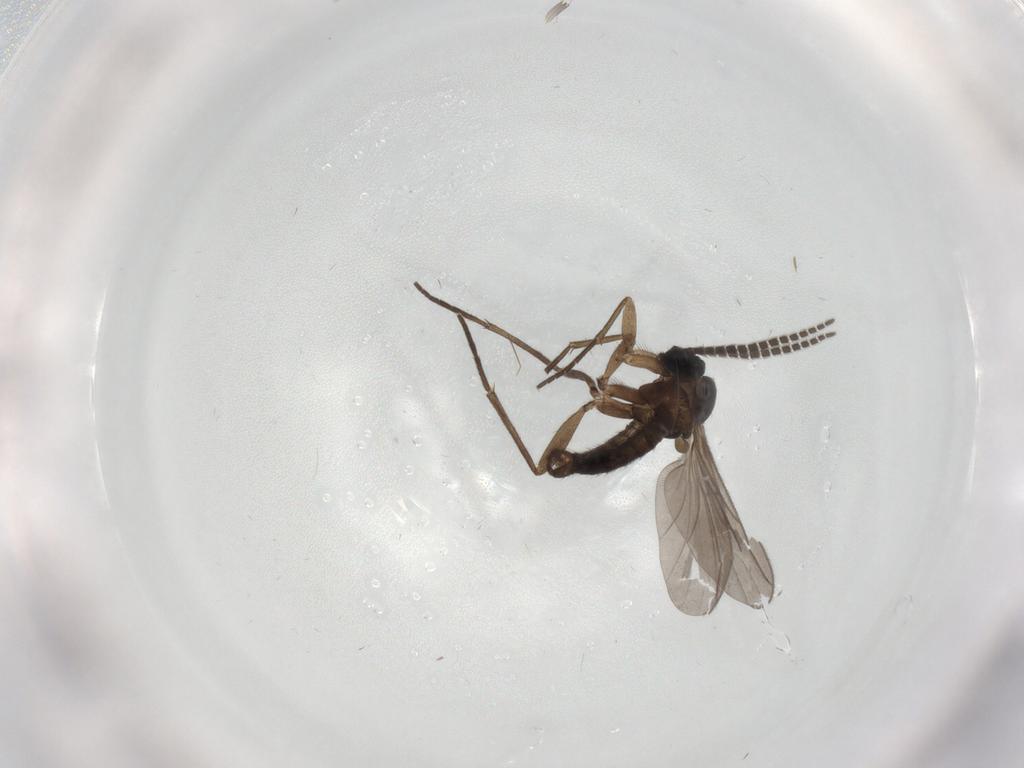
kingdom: Animalia
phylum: Arthropoda
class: Insecta
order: Diptera
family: Sciaridae
